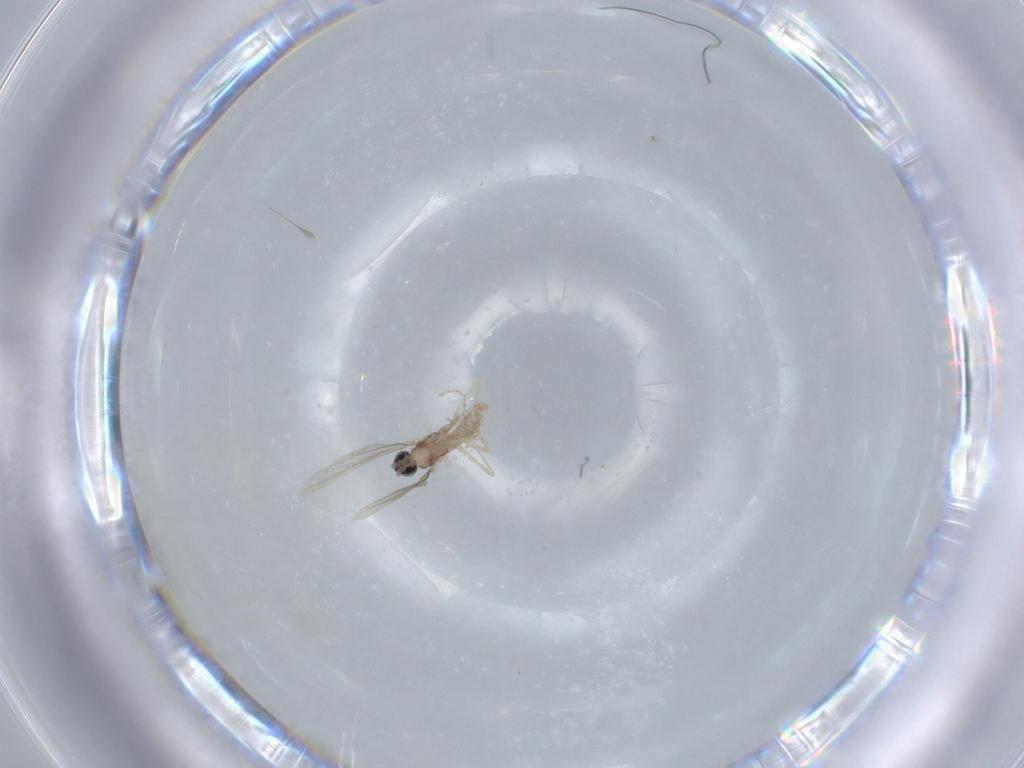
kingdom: Animalia
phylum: Arthropoda
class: Insecta
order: Diptera
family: Cecidomyiidae
